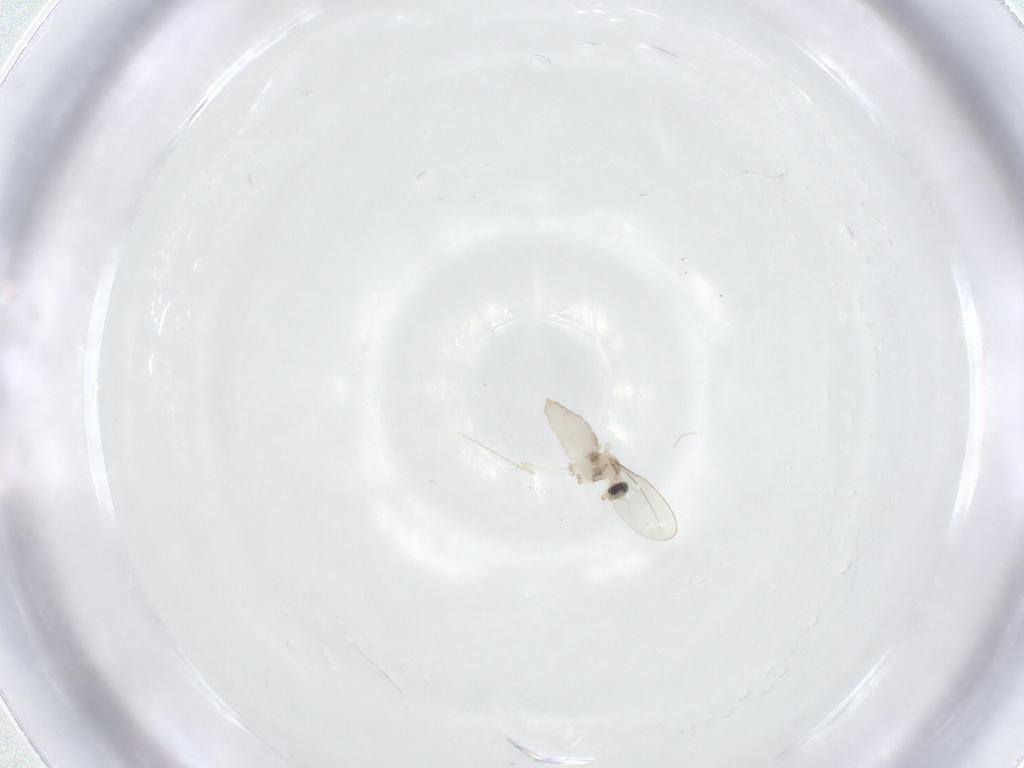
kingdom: Animalia
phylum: Arthropoda
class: Insecta
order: Diptera
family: Cecidomyiidae
